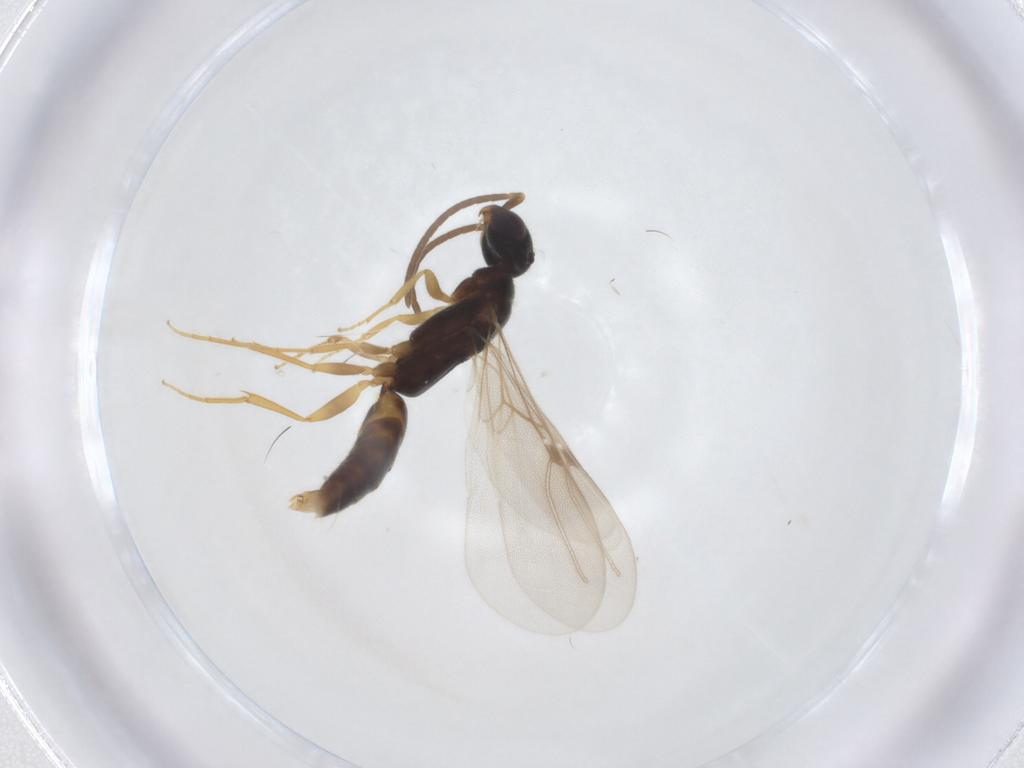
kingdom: Animalia
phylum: Arthropoda
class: Insecta
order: Hymenoptera
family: Bethylidae
